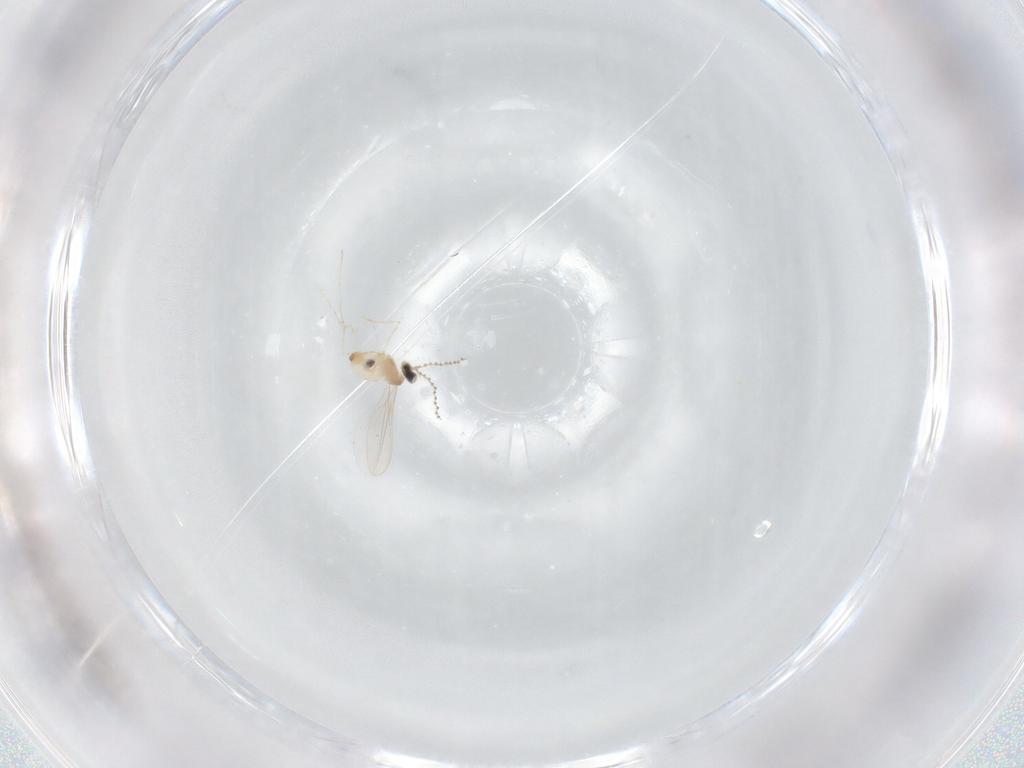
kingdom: Animalia
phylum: Arthropoda
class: Insecta
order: Diptera
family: Cecidomyiidae
